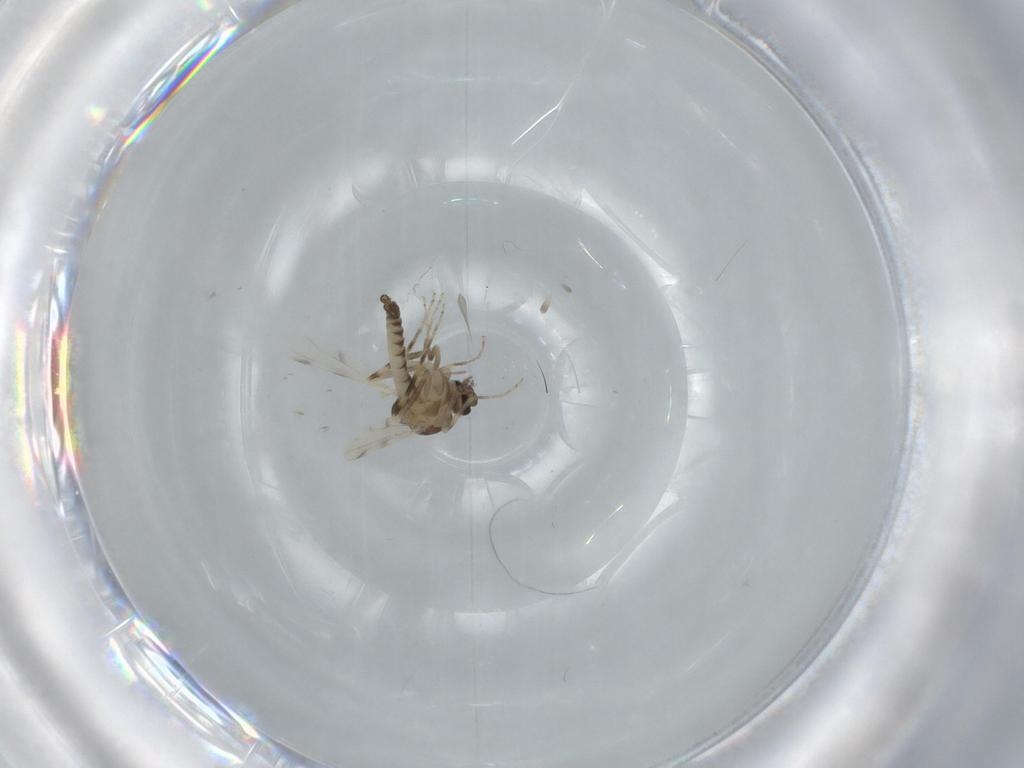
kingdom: Animalia
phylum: Arthropoda
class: Insecta
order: Diptera
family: Ceratopogonidae
